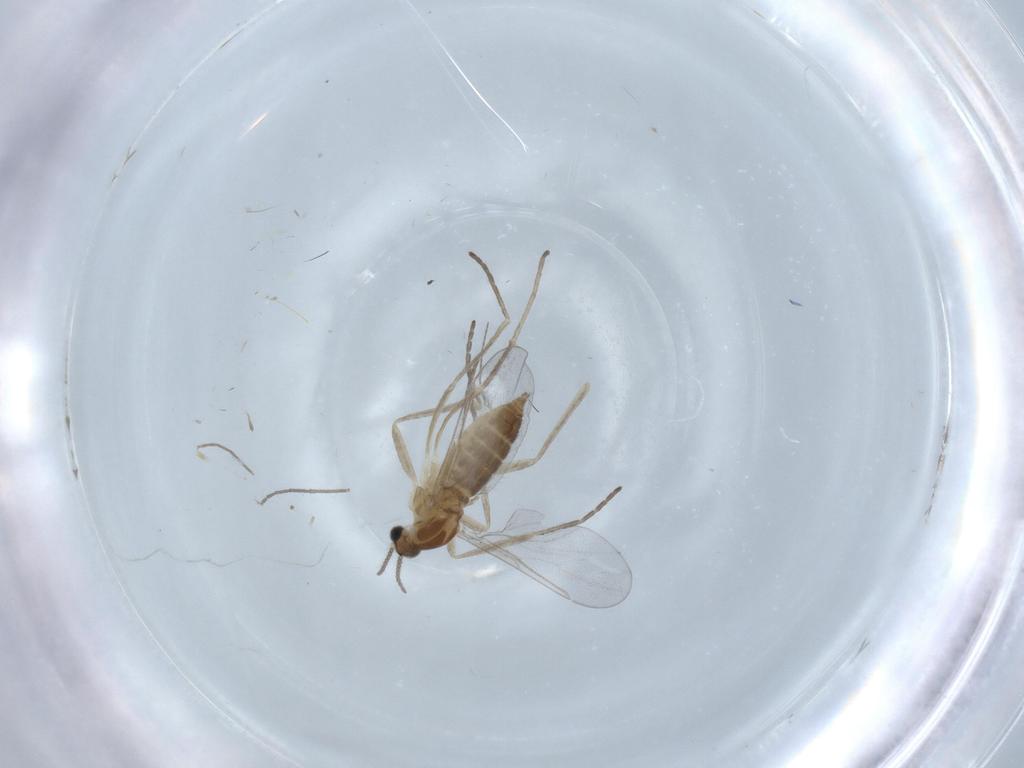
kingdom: Animalia
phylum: Arthropoda
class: Insecta
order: Diptera
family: Cecidomyiidae
